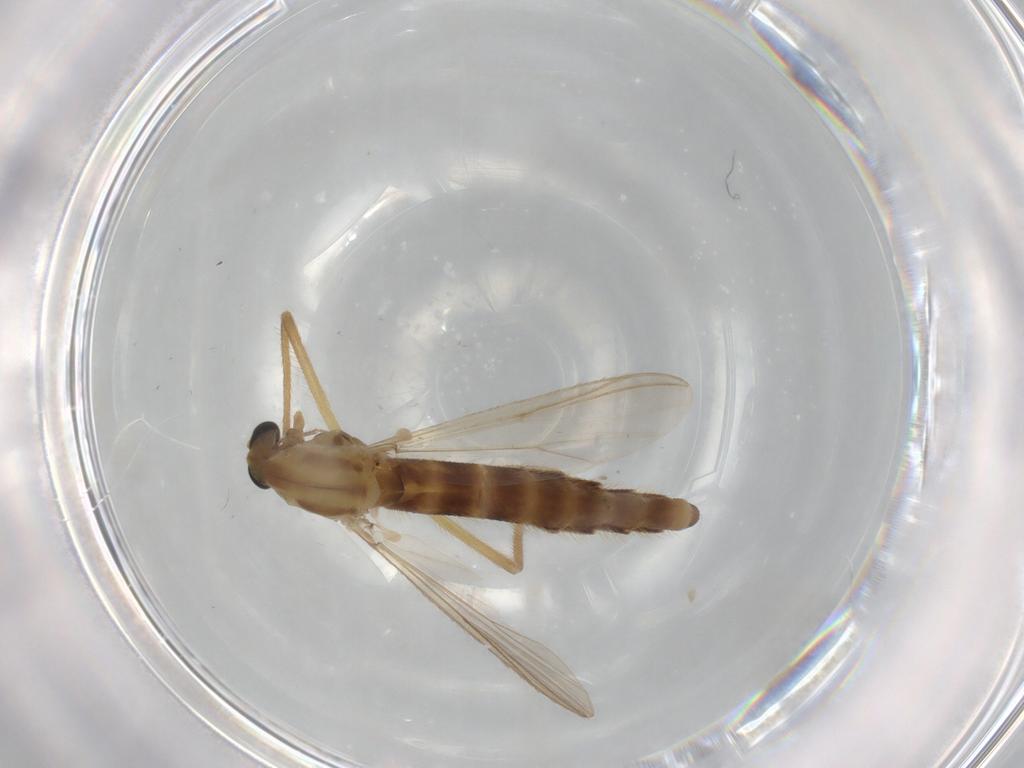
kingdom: Animalia
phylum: Arthropoda
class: Insecta
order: Diptera
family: Chironomidae
